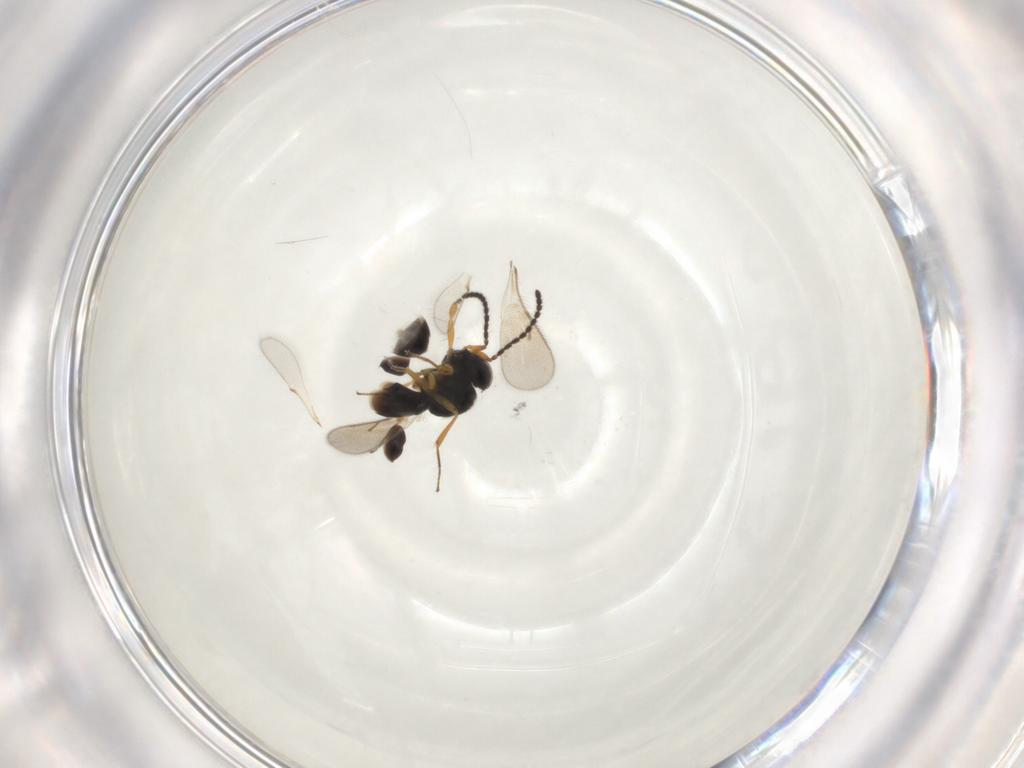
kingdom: Animalia
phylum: Arthropoda
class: Insecta
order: Hymenoptera
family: Scelionidae
